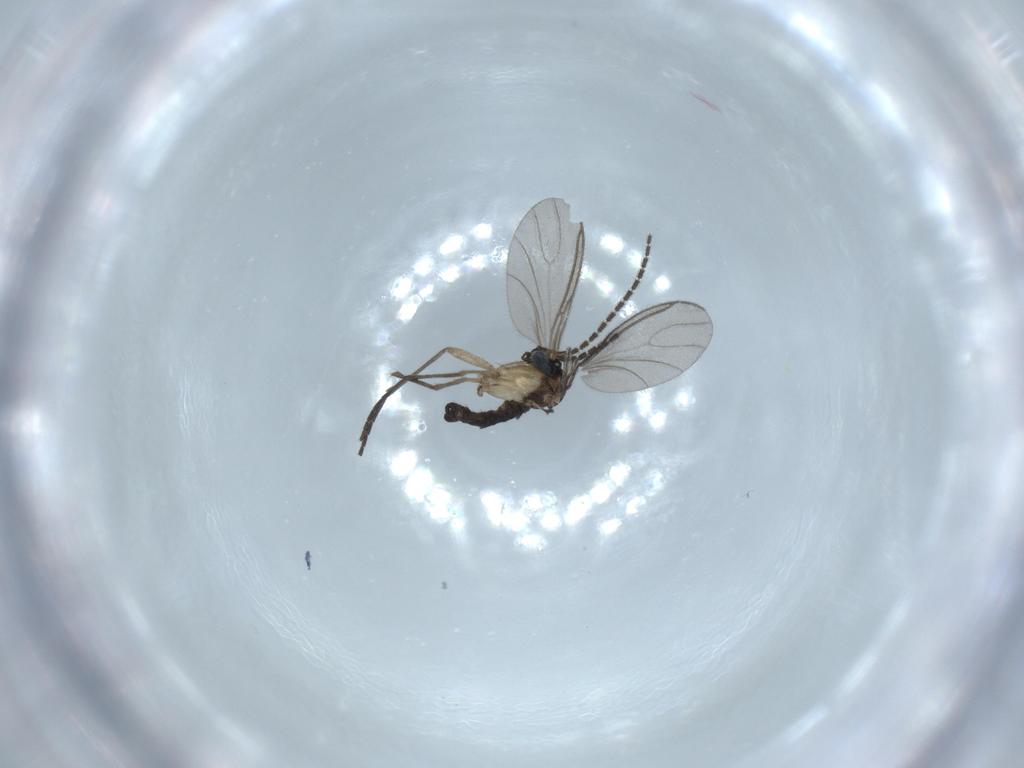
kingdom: Animalia
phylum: Arthropoda
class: Insecta
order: Diptera
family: Sciaridae
